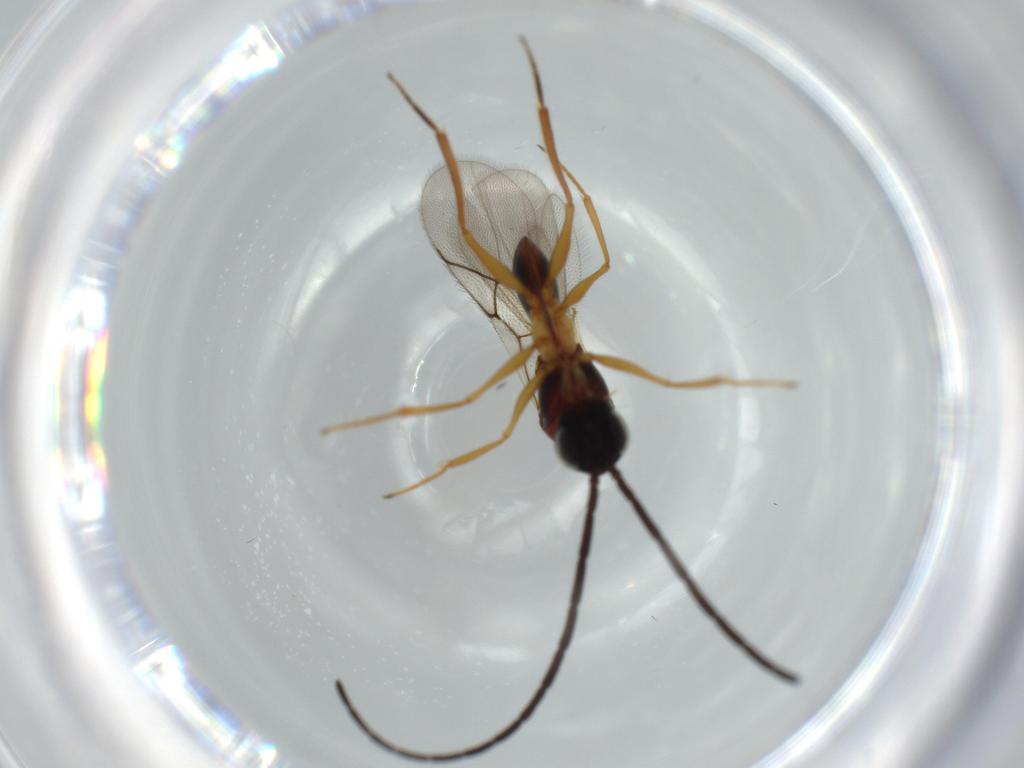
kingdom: Animalia
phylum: Arthropoda
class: Insecta
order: Hymenoptera
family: Figitidae
